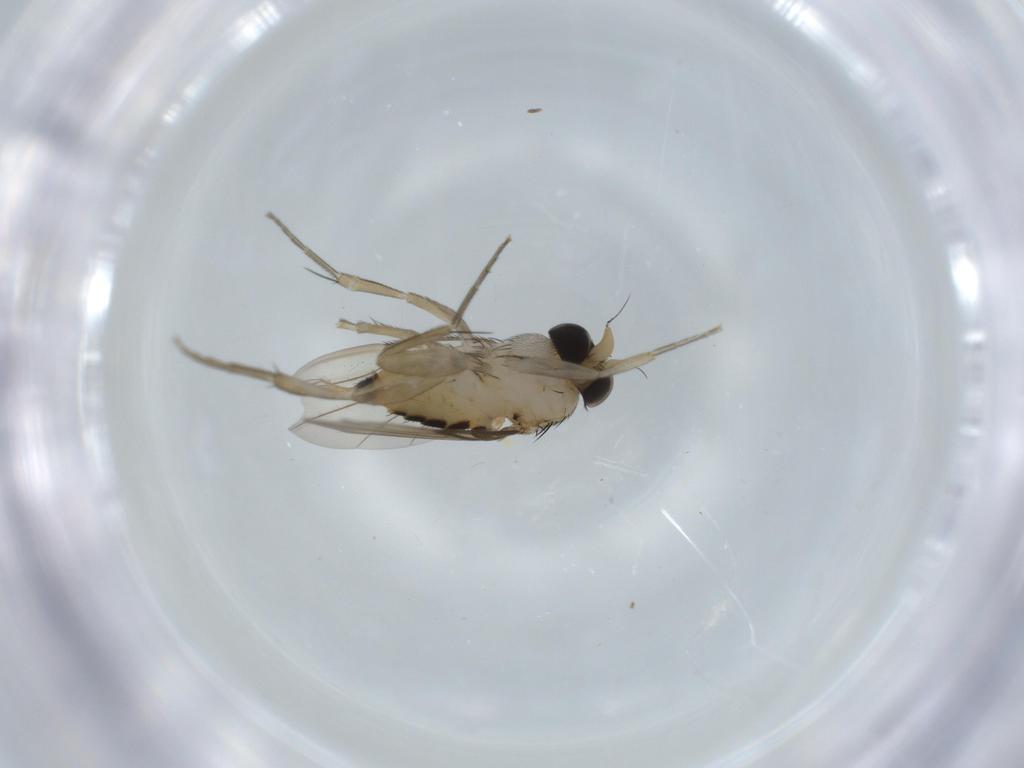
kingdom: Animalia
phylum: Arthropoda
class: Insecta
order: Diptera
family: Phoridae
